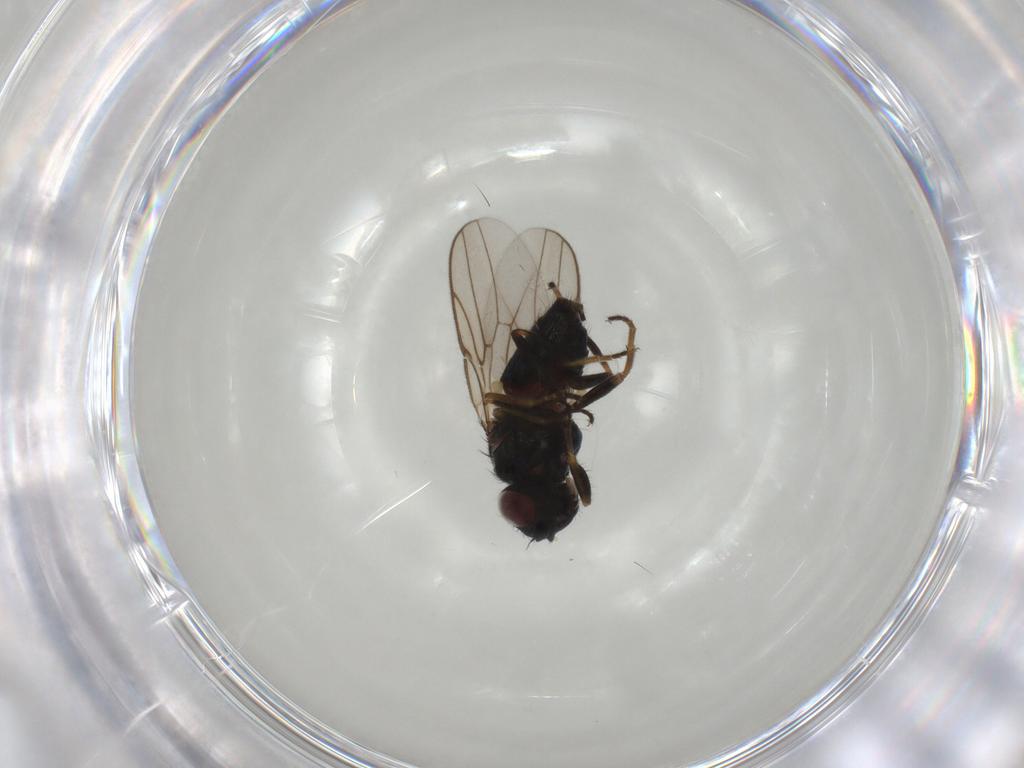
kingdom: Animalia
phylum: Arthropoda
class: Insecta
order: Diptera
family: Chloropidae
